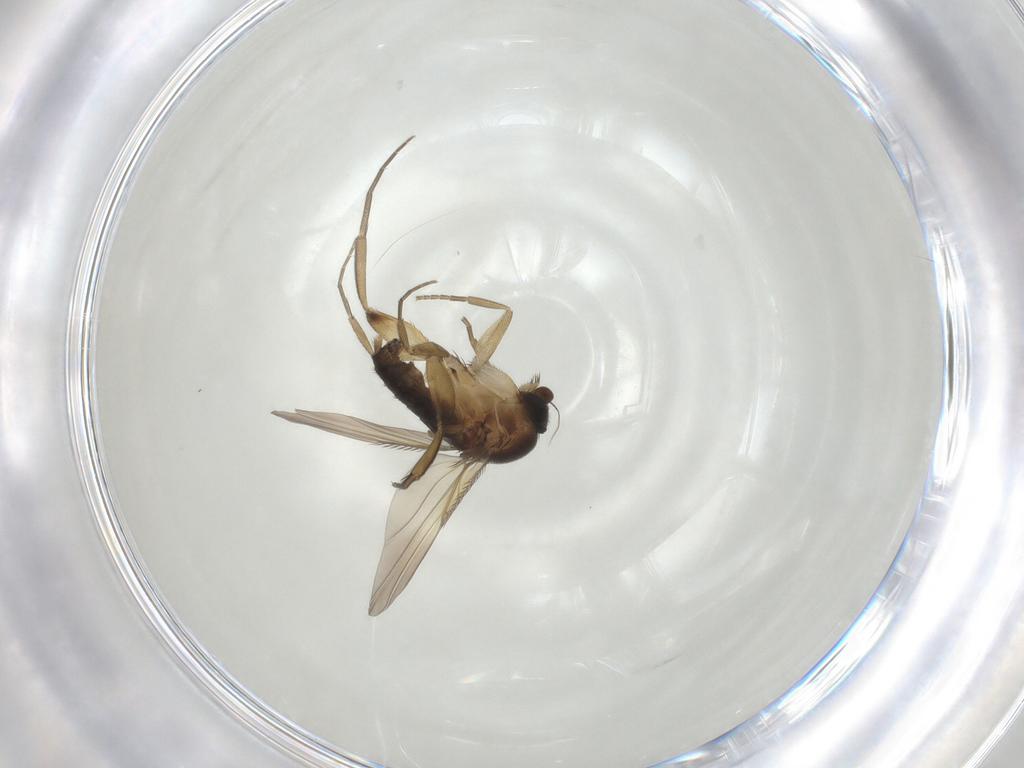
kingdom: Animalia
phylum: Arthropoda
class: Insecta
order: Diptera
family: Phoridae
